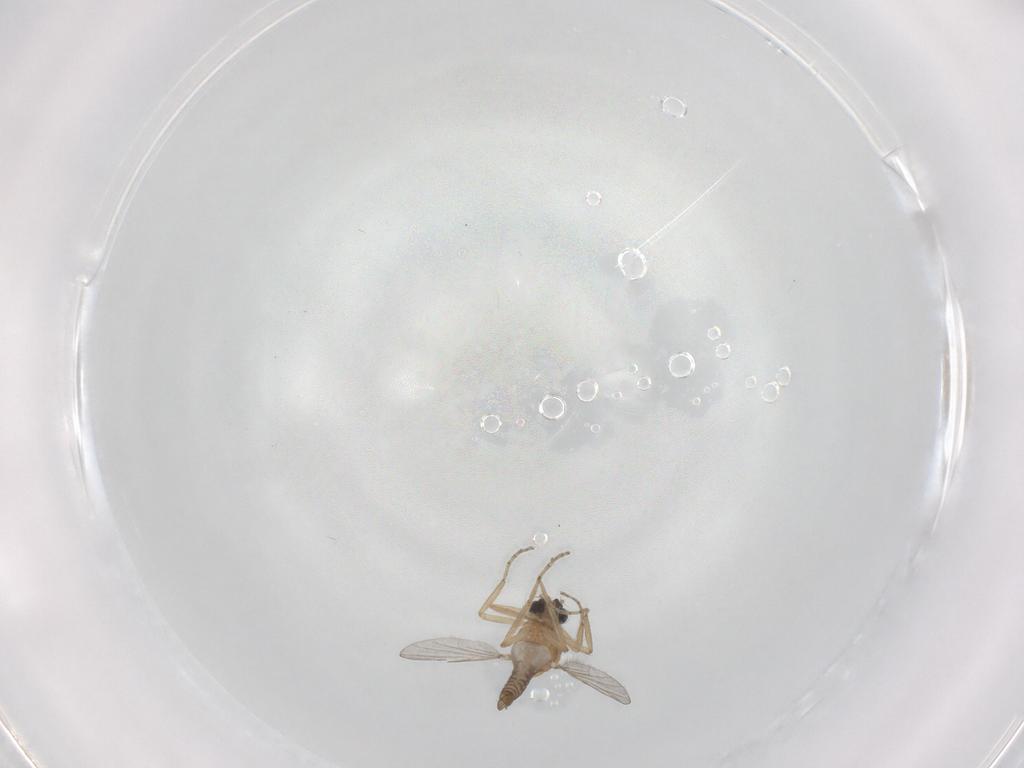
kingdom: Animalia
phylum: Arthropoda
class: Insecta
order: Diptera
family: Ceratopogonidae
